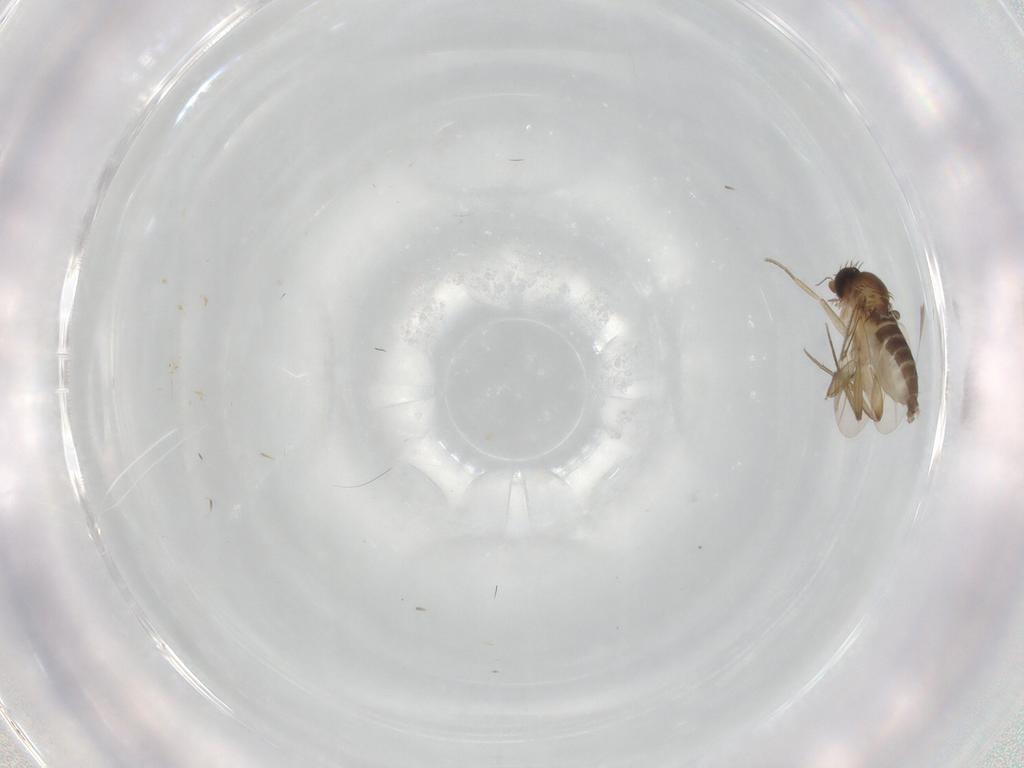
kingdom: Animalia
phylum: Arthropoda
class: Insecta
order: Diptera
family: Phoridae
